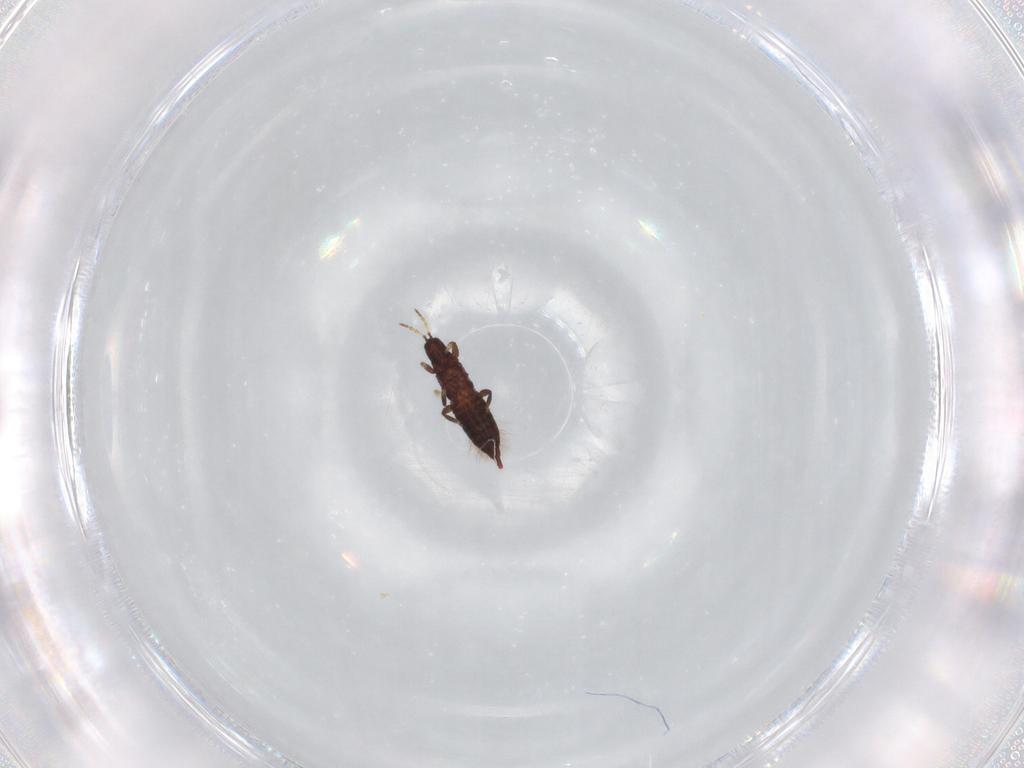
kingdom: Animalia
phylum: Arthropoda
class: Insecta
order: Thysanoptera
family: Phlaeothripidae
